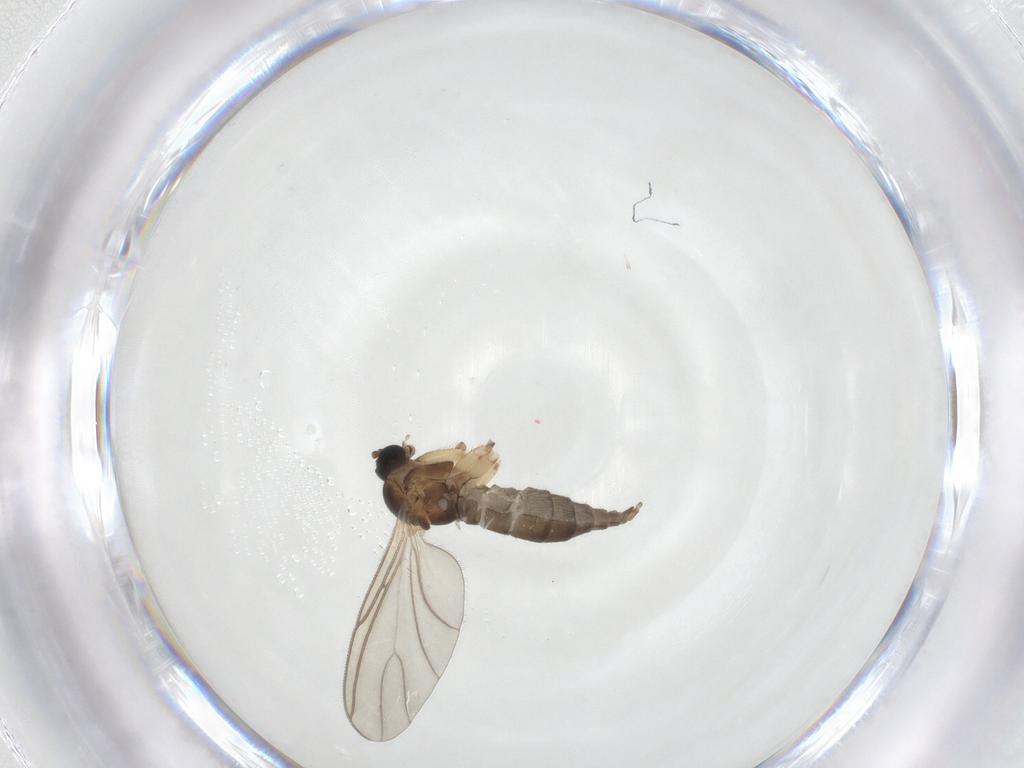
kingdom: Animalia
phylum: Arthropoda
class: Insecta
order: Diptera
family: Sciaridae
